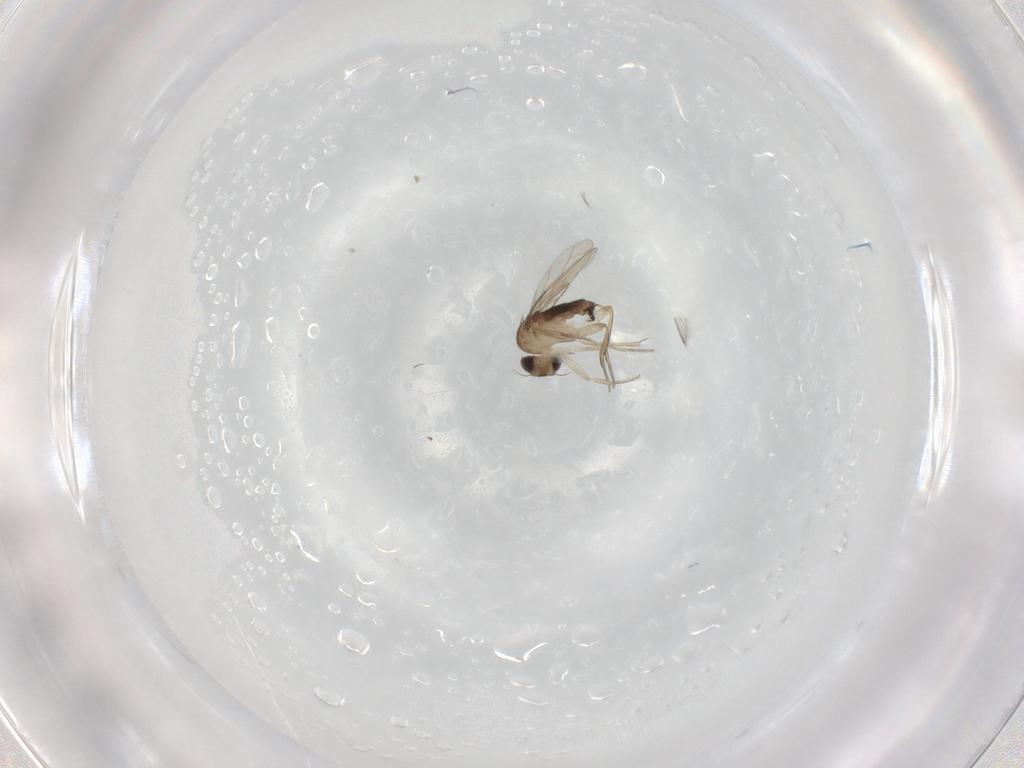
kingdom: Animalia
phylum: Arthropoda
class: Insecta
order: Diptera
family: Phoridae
